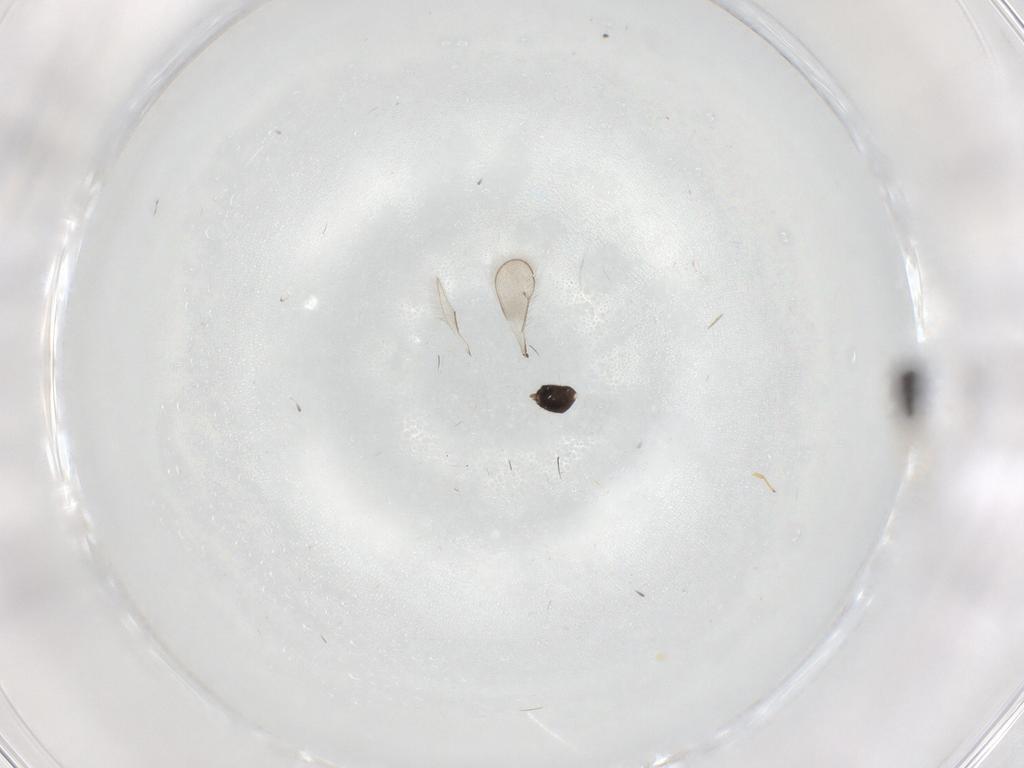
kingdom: Animalia
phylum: Arthropoda
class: Insecta
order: Hymenoptera
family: Eulophidae
